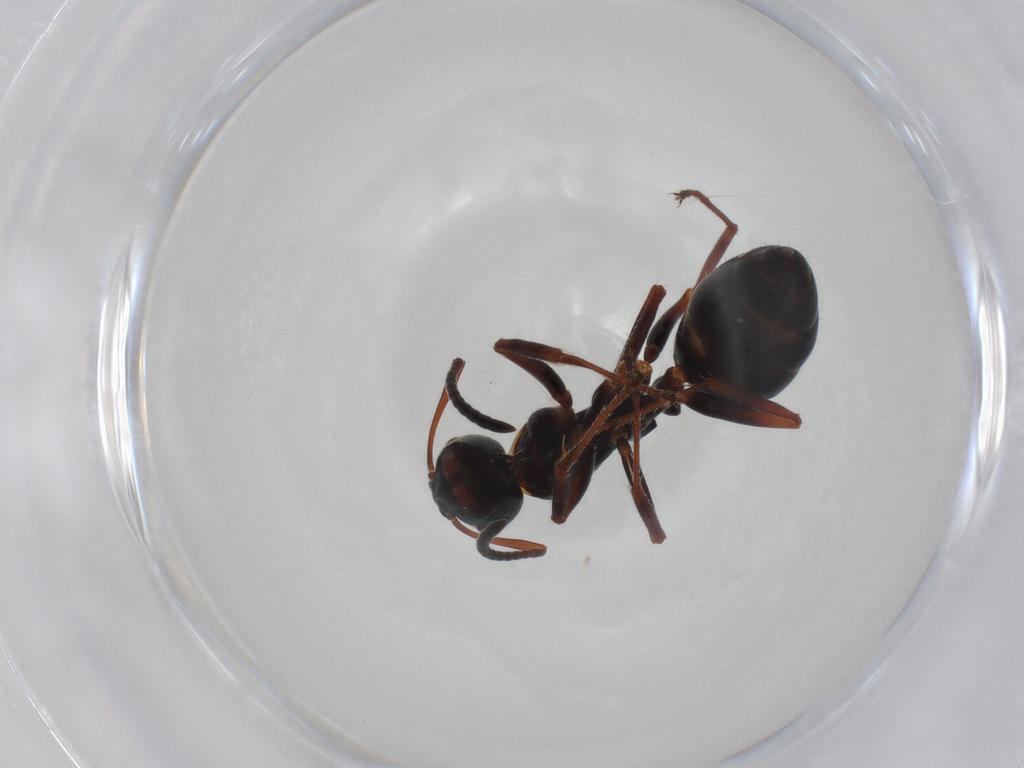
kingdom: Animalia
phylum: Arthropoda
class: Insecta
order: Hymenoptera
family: Formicidae
